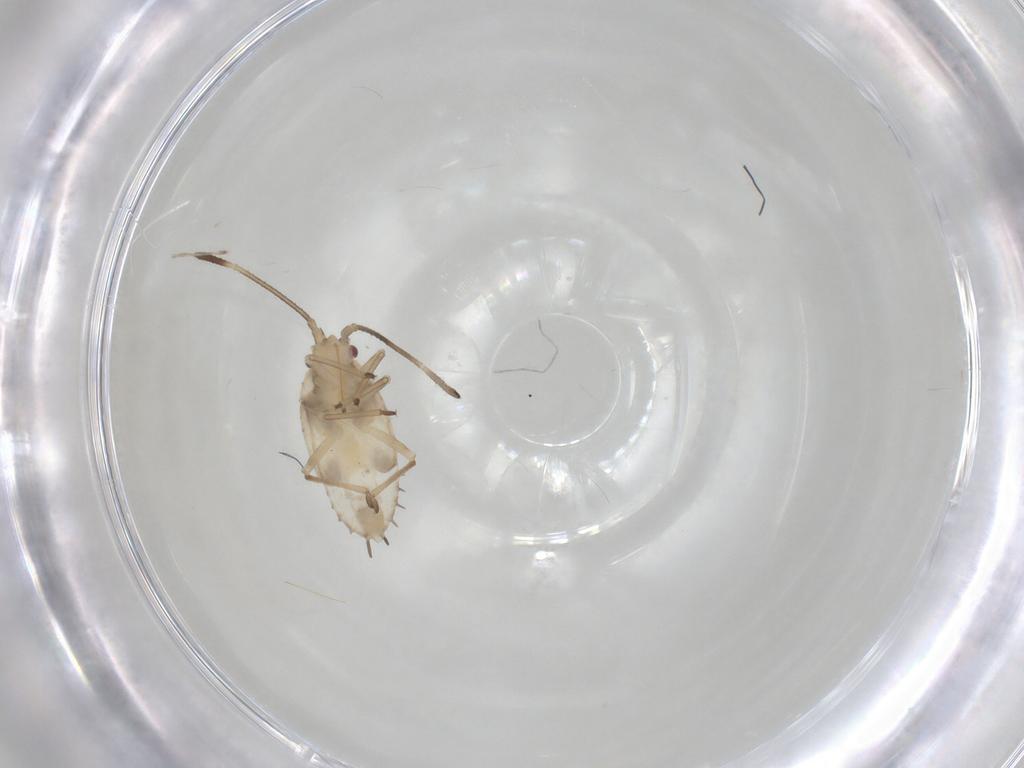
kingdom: Animalia
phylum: Arthropoda
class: Insecta
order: Hemiptera
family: Tingidae
